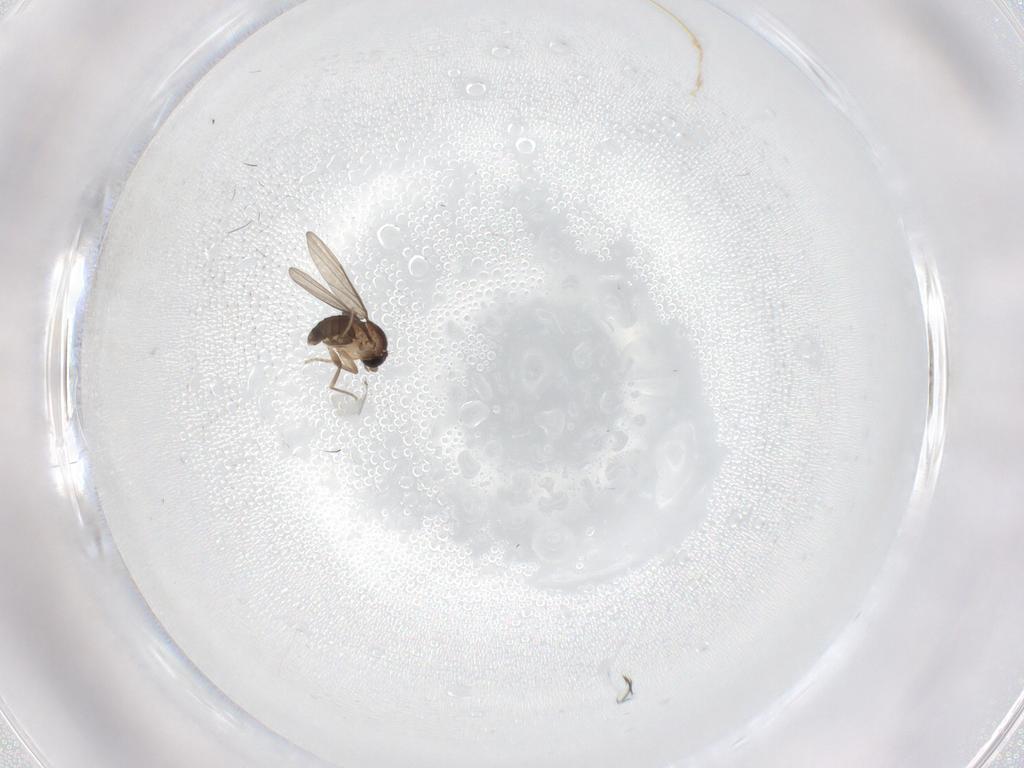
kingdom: Animalia
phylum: Arthropoda
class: Insecta
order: Diptera
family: Phoridae
